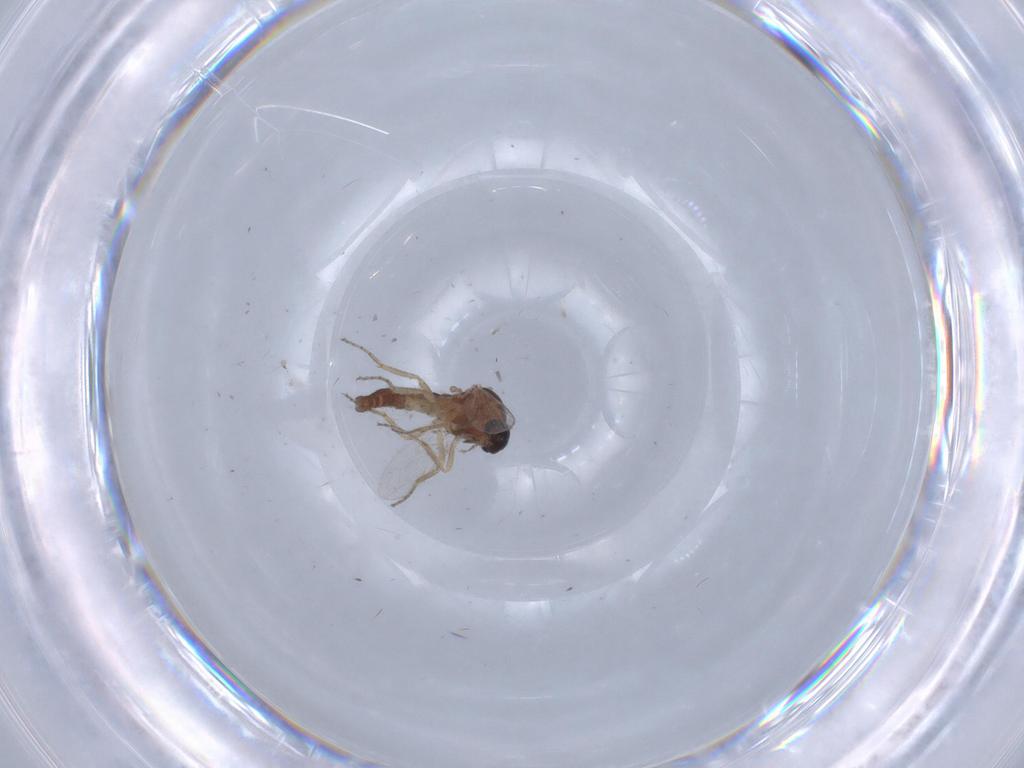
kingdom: Animalia
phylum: Arthropoda
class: Insecta
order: Diptera
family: Ceratopogonidae
